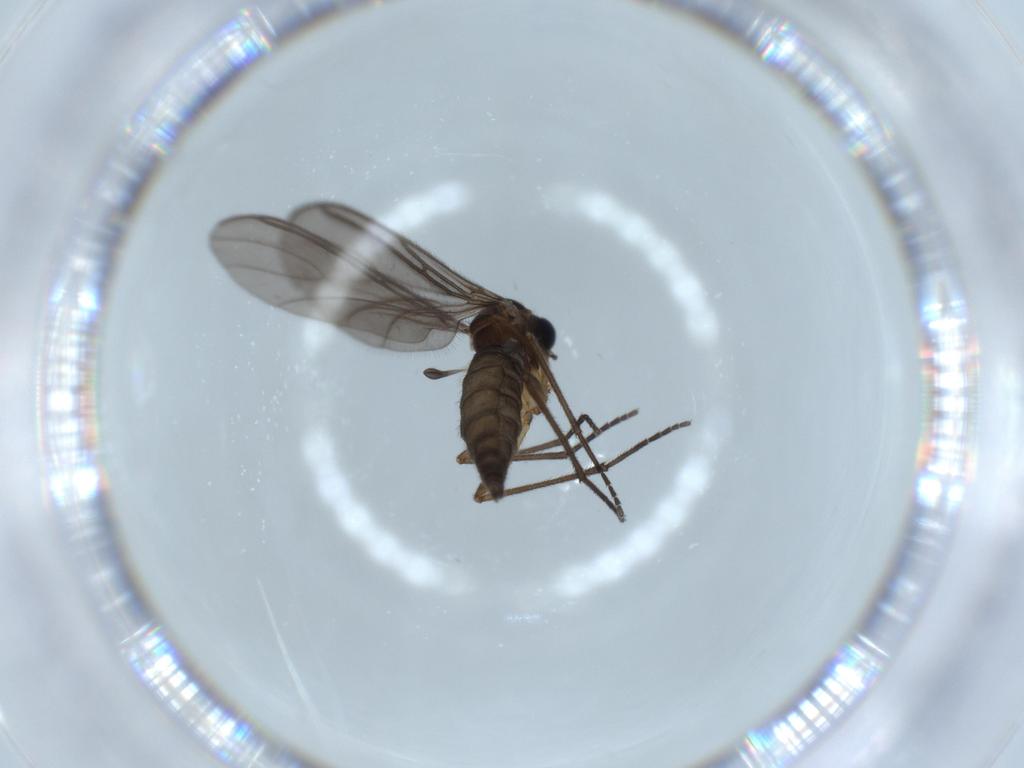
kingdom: Animalia
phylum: Arthropoda
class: Insecta
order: Diptera
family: Sciaridae
